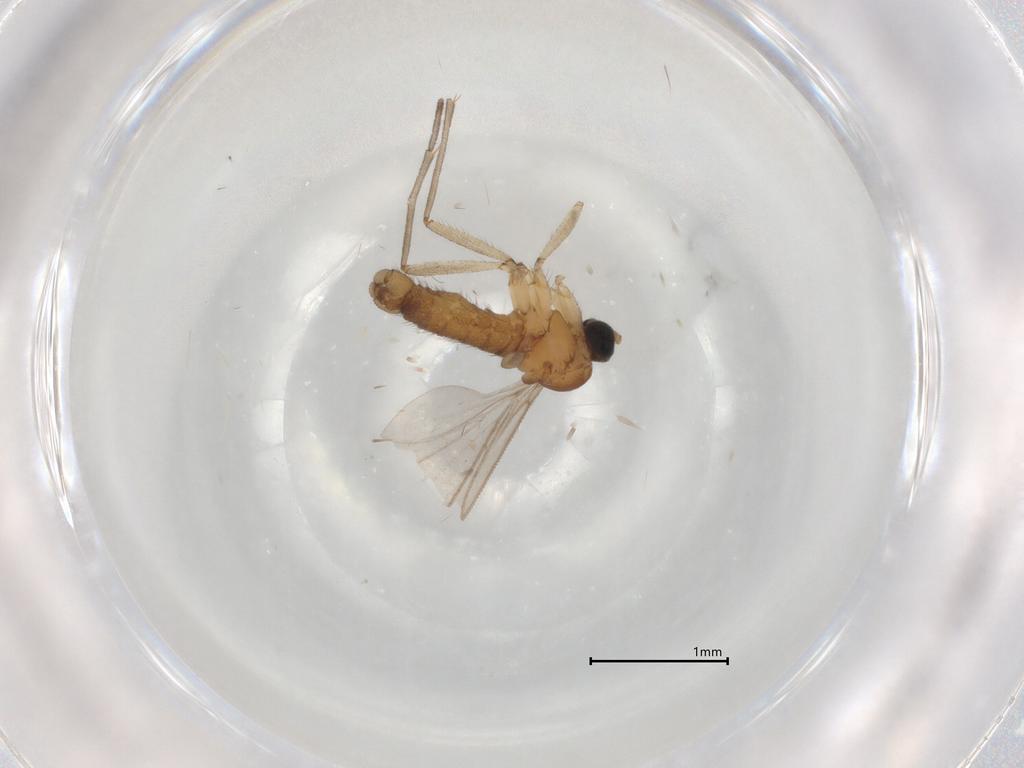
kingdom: Animalia
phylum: Arthropoda
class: Insecta
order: Diptera
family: Sciaridae
